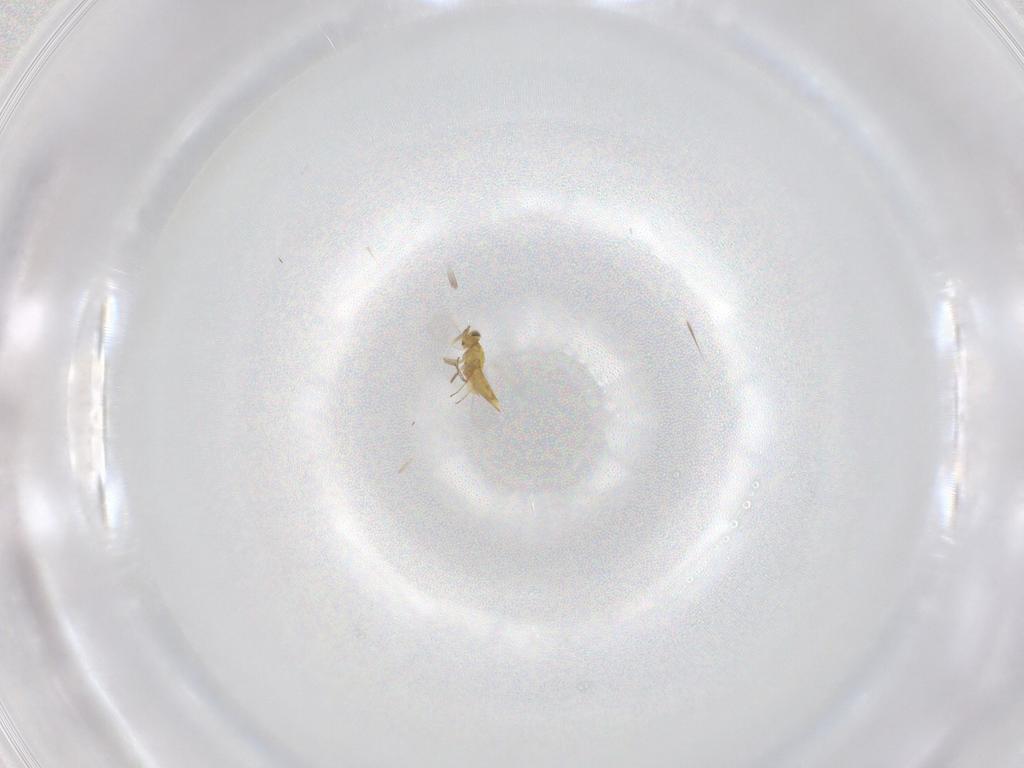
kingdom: Animalia
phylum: Arthropoda
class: Insecta
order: Hymenoptera
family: Aphelinidae
